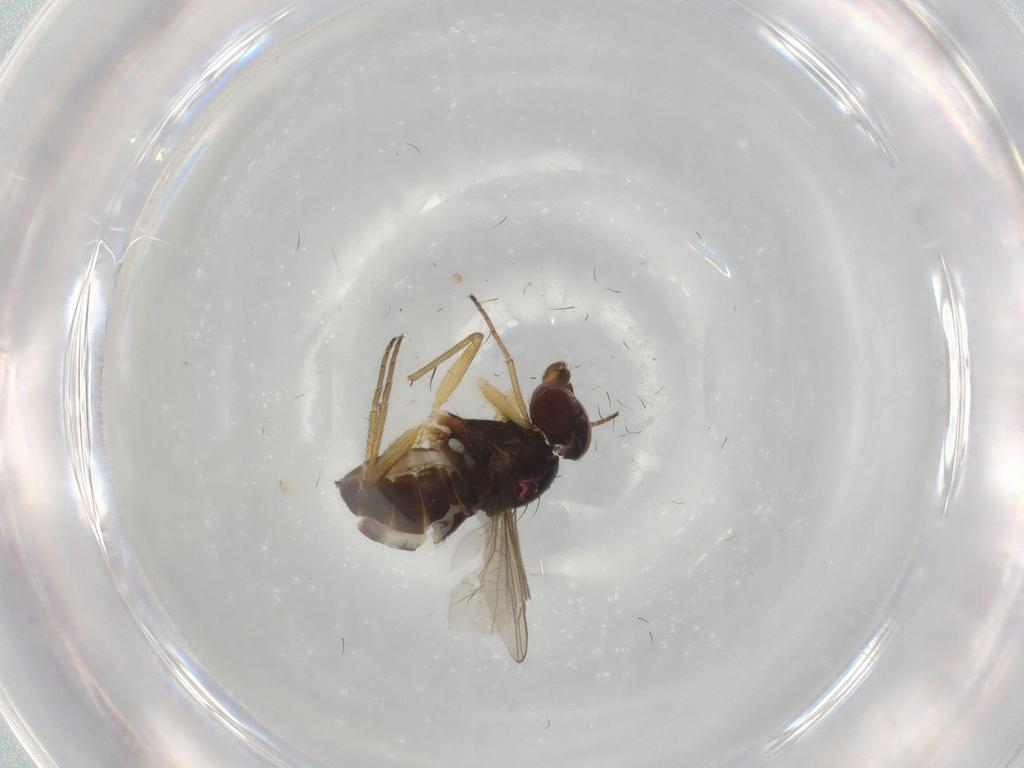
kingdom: Animalia
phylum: Arthropoda
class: Insecta
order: Diptera
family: Dolichopodidae
